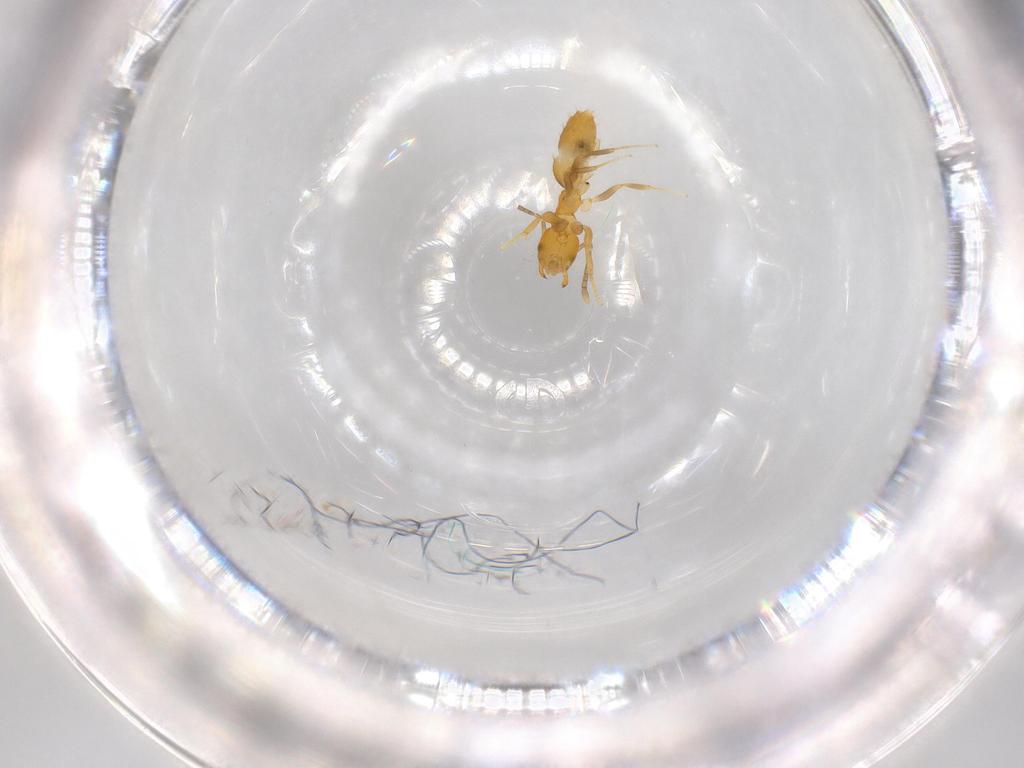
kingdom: Animalia
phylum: Arthropoda
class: Insecta
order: Hymenoptera
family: Formicidae
